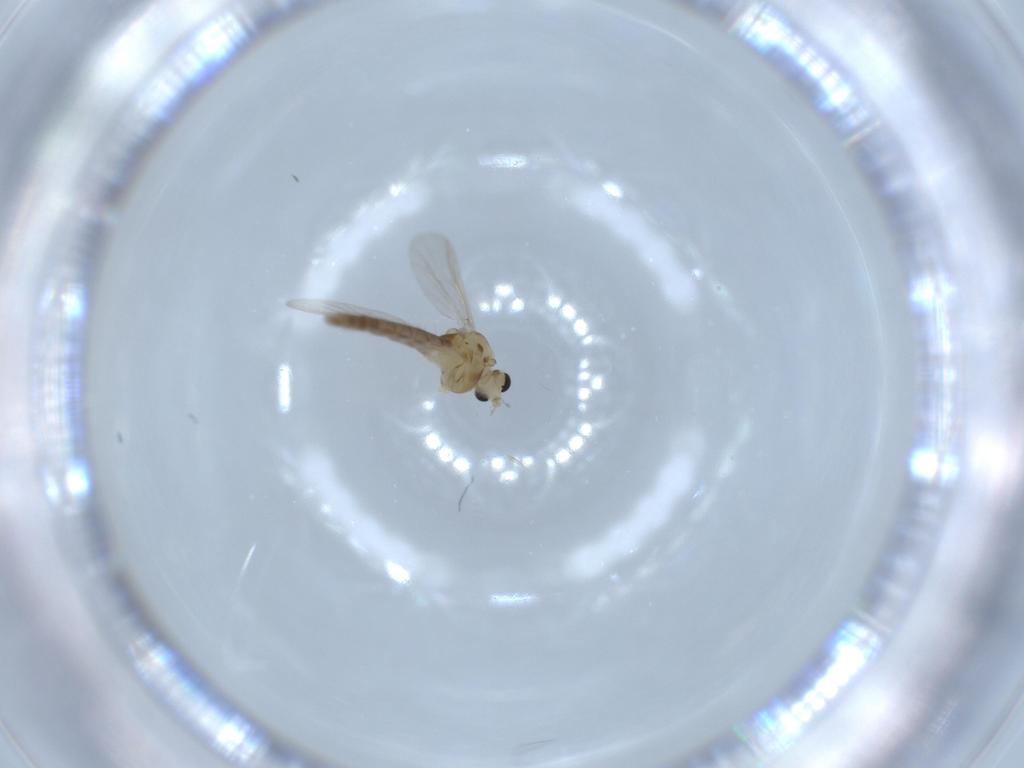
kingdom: Animalia
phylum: Arthropoda
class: Insecta
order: Diptera
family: Chironomidae
